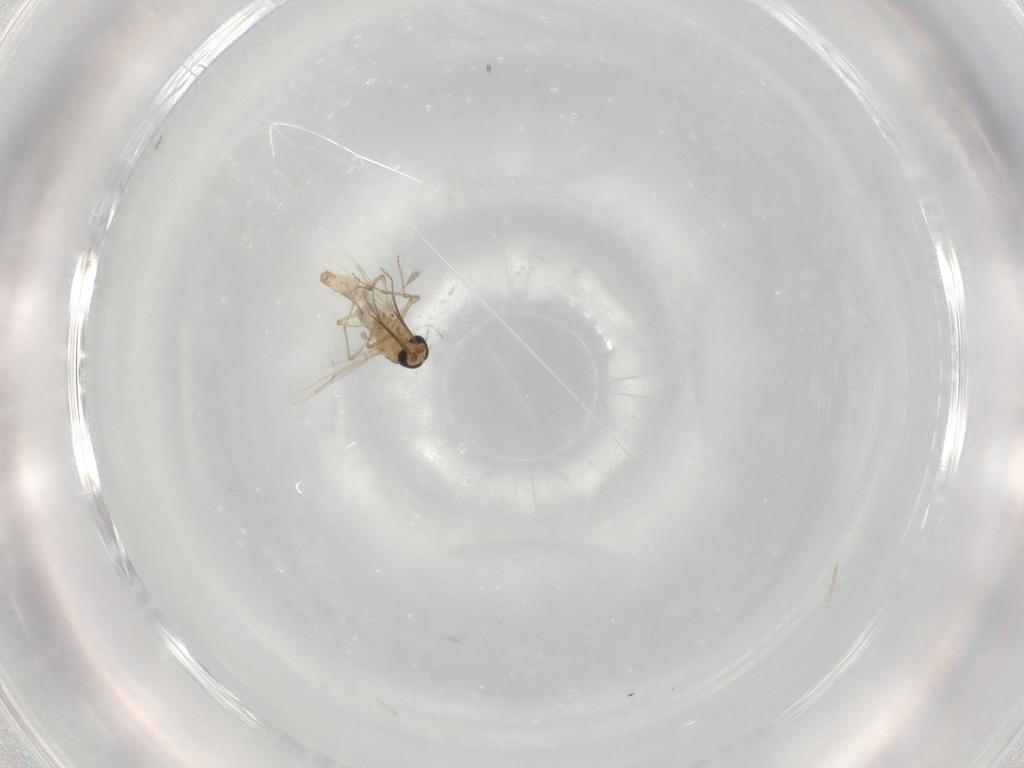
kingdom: Animalia
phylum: Arthropoda
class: Insecta
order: Diptera
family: Ceratopogonidae
